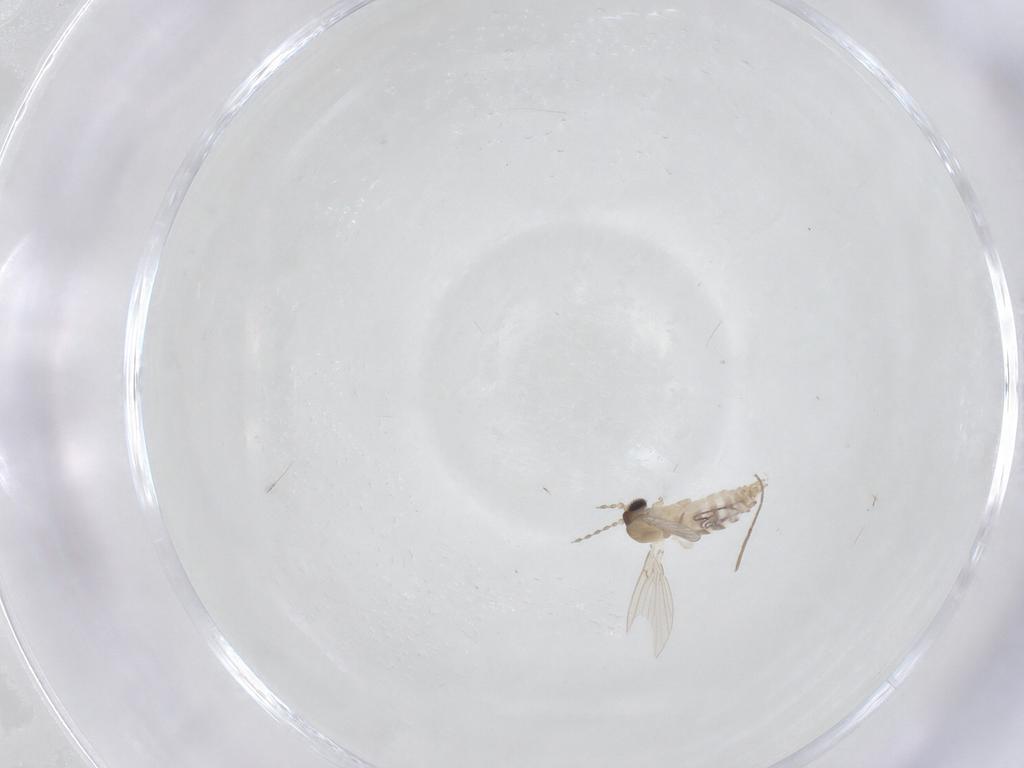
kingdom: Animalia
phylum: Arthropoda
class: Insecta
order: Diptera
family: Chironomidae
